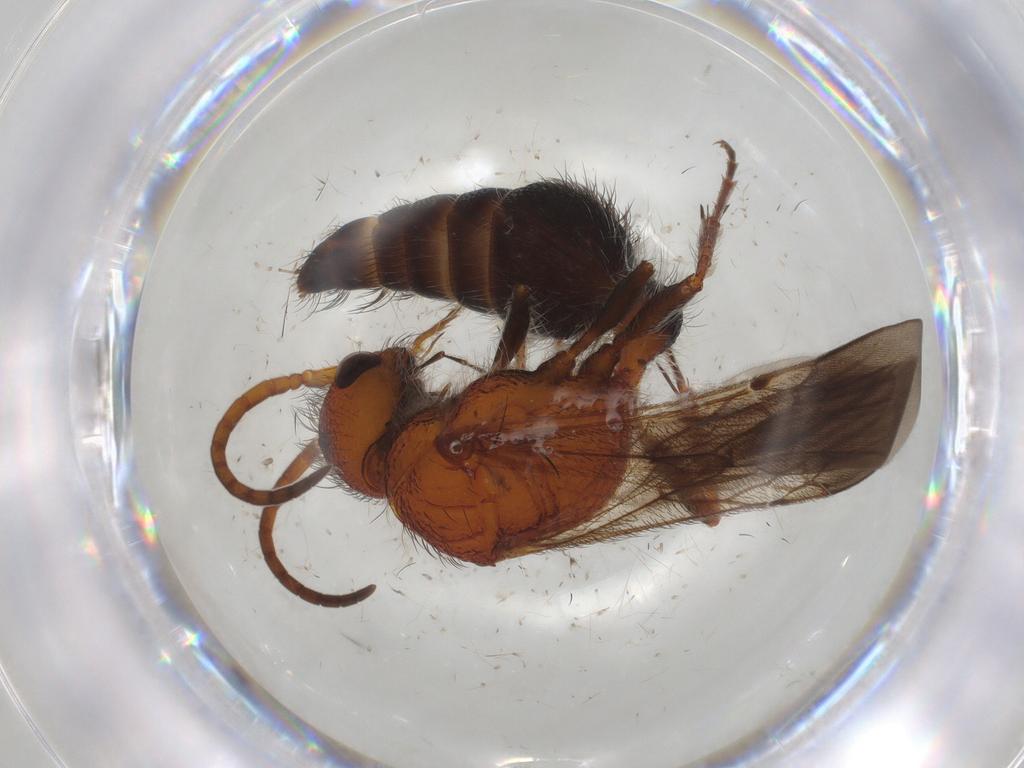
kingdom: Animalia
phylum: Arthropoda
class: Insecta
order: Hymenoptera
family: Mutillidae
